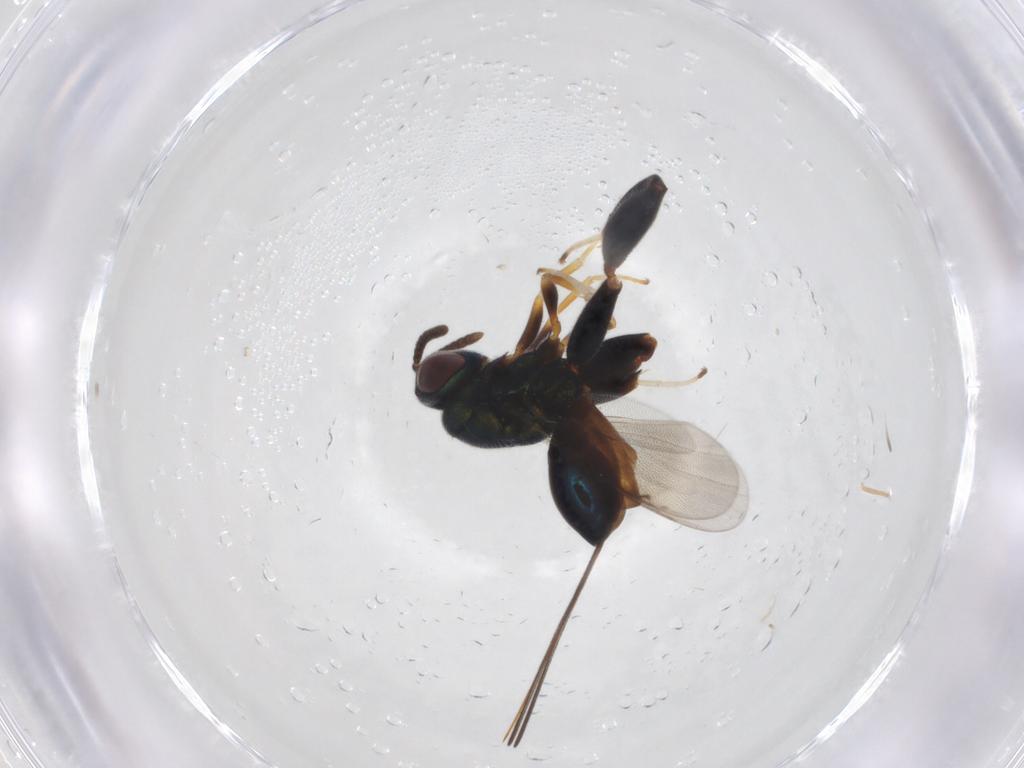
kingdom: Animalia
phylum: Arthropoda
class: Insecta
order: Hymenoptera
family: Torymidae
